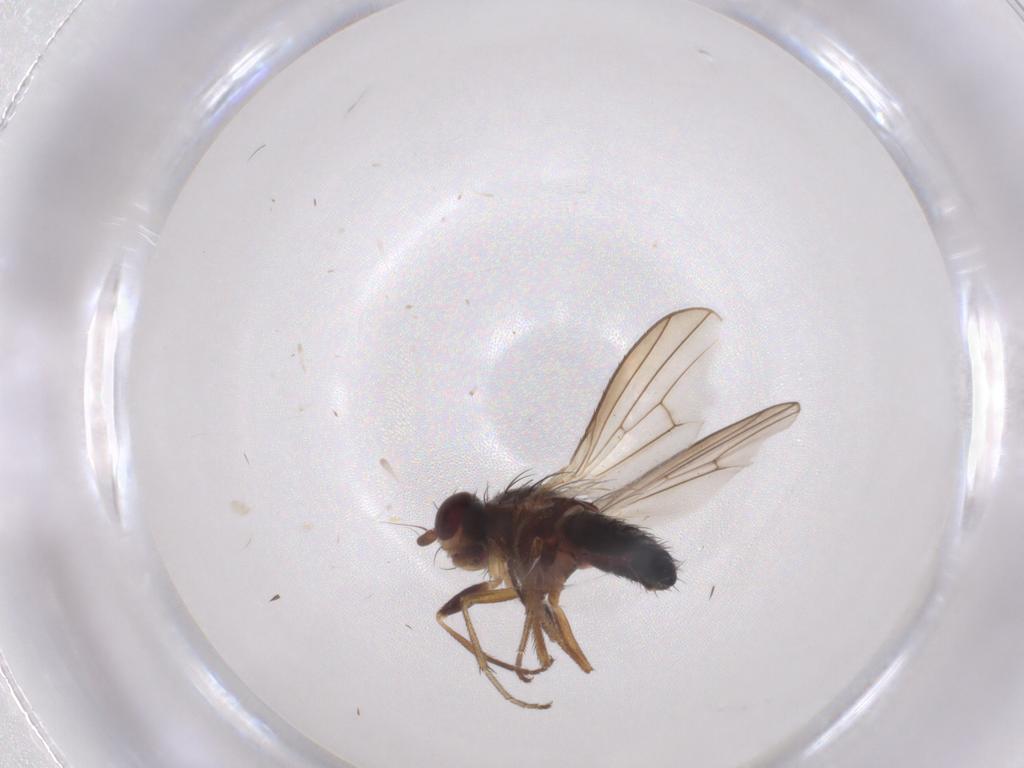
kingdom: Animalia
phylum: Arthropoda
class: Insecta
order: Diptera
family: Heleomyzidae
